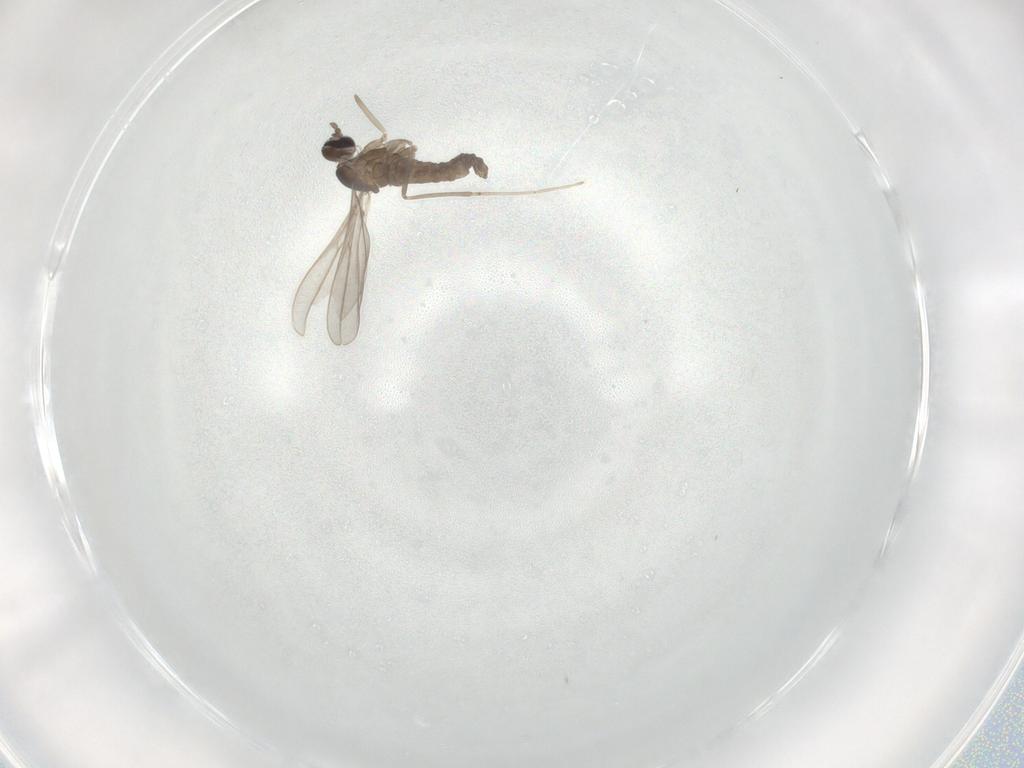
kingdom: Animalia
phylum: Arthropoda
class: Insecta
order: Diptera
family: Cecidomyiidae
